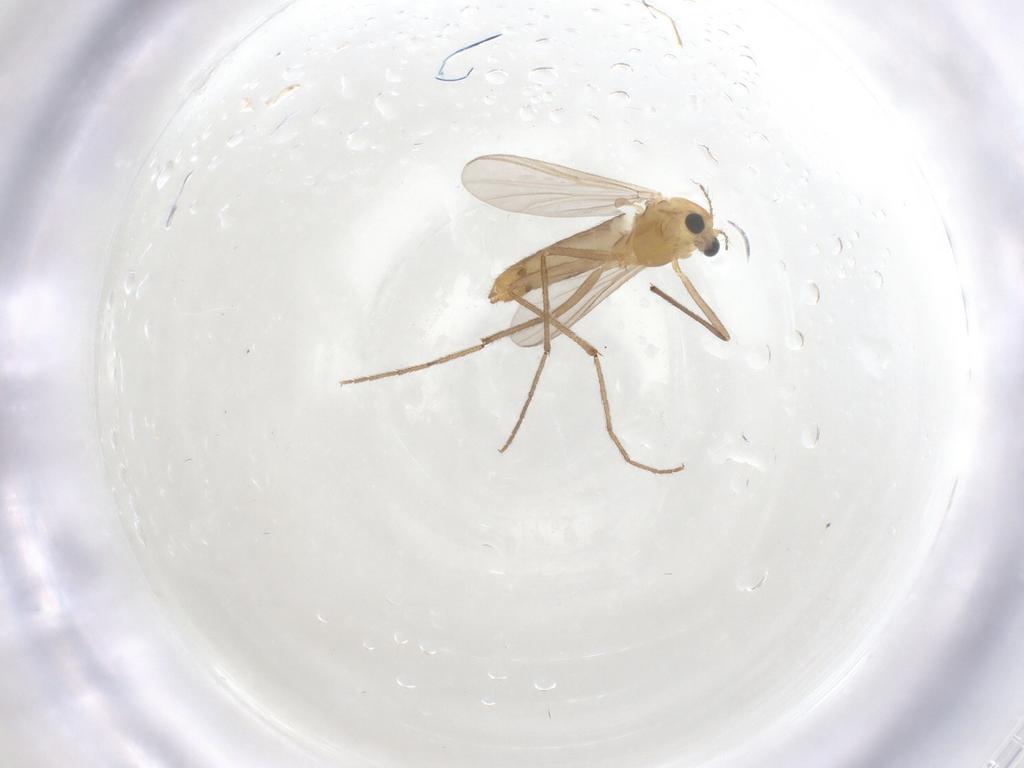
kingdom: Animalia
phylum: Arthropoda
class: Insecta
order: Diptera
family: Chironomidae
